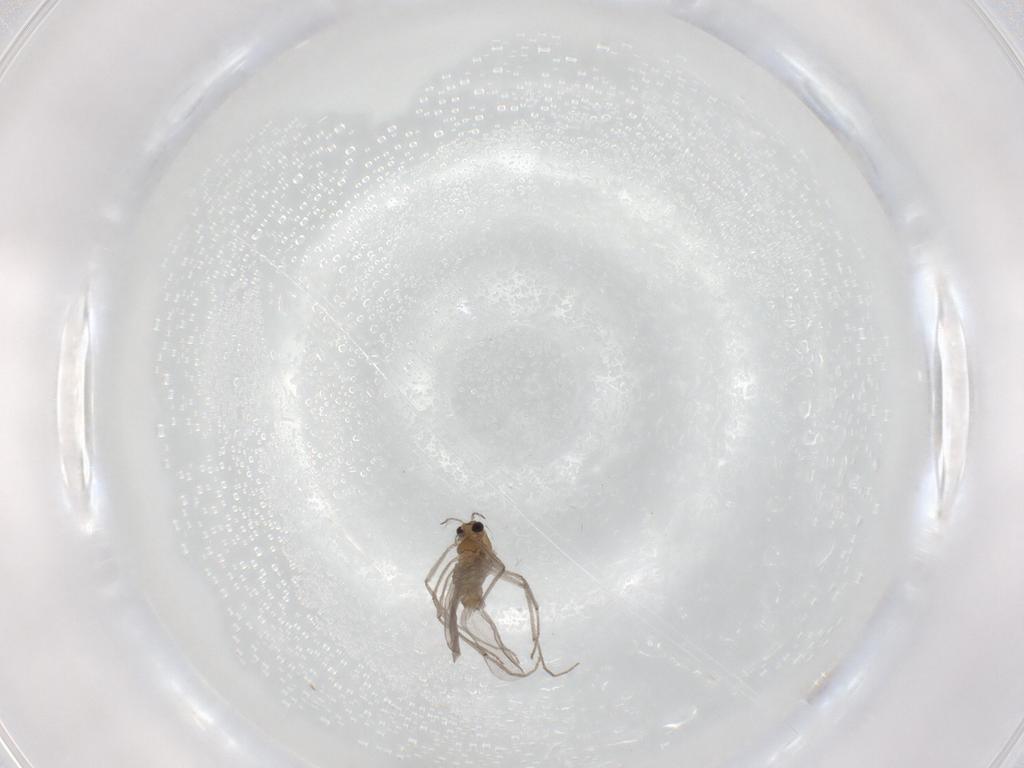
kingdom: Animalia
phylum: Arthropoda
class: Insecta
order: Diptera
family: Chironomidae
